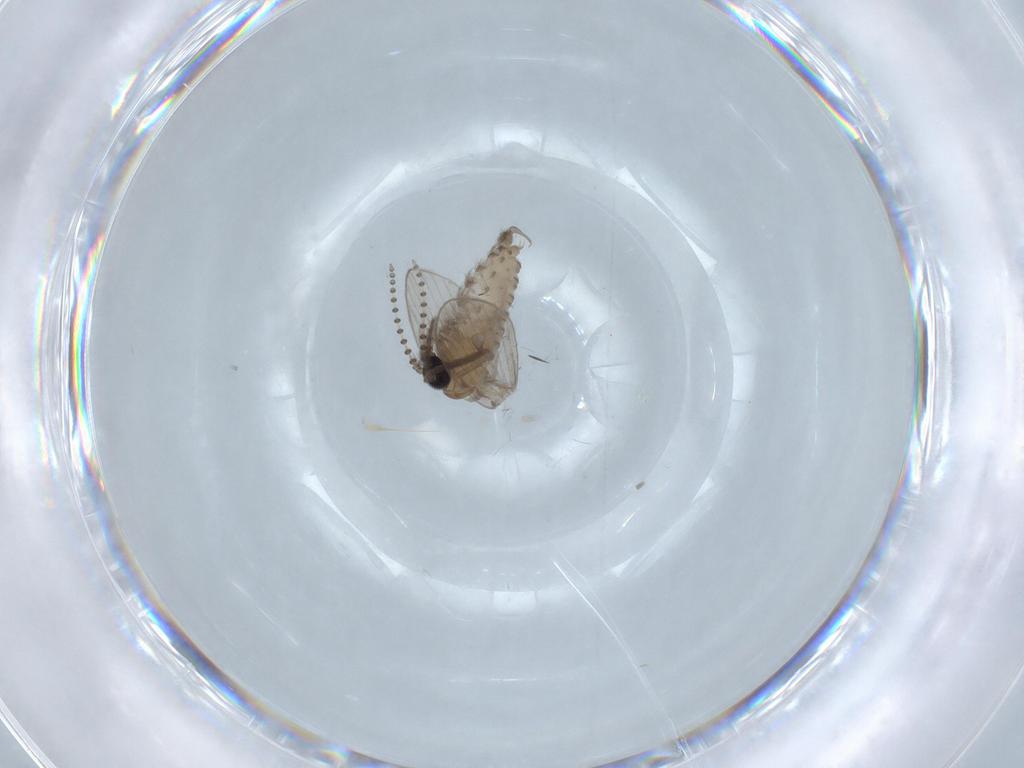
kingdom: Animalia
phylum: Arthropoda
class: Insecta
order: Diptera
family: Psychodidae
